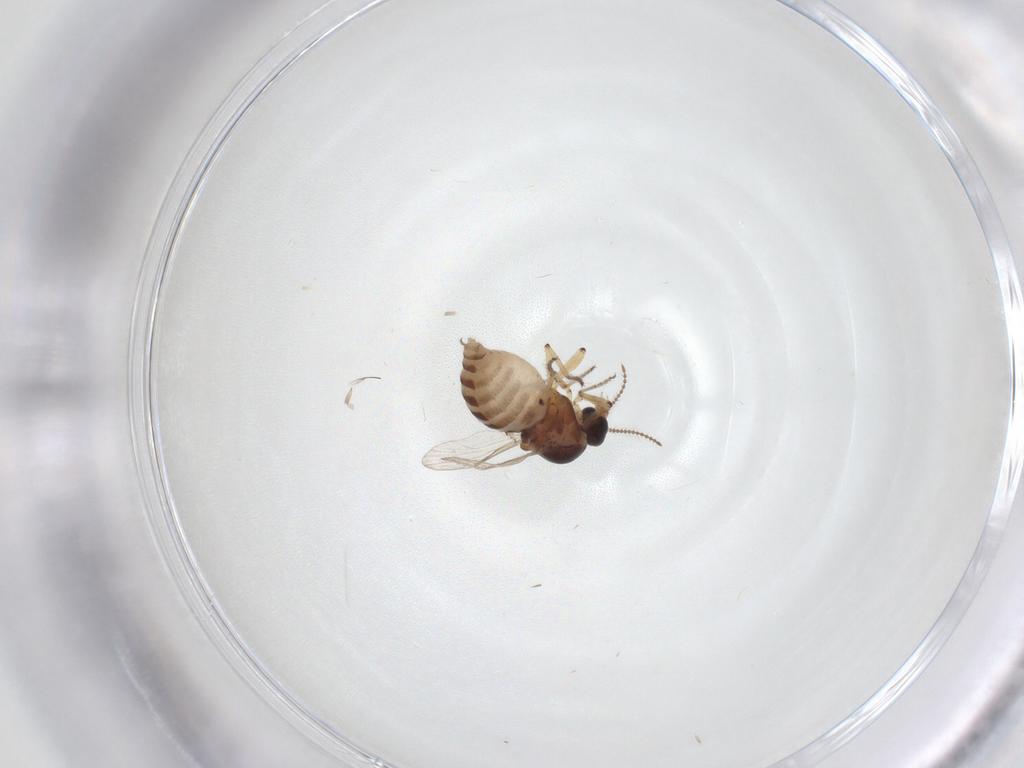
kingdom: Animalia
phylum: Arthropoda
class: Insecta
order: Diptera
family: Ceratopogonidae
